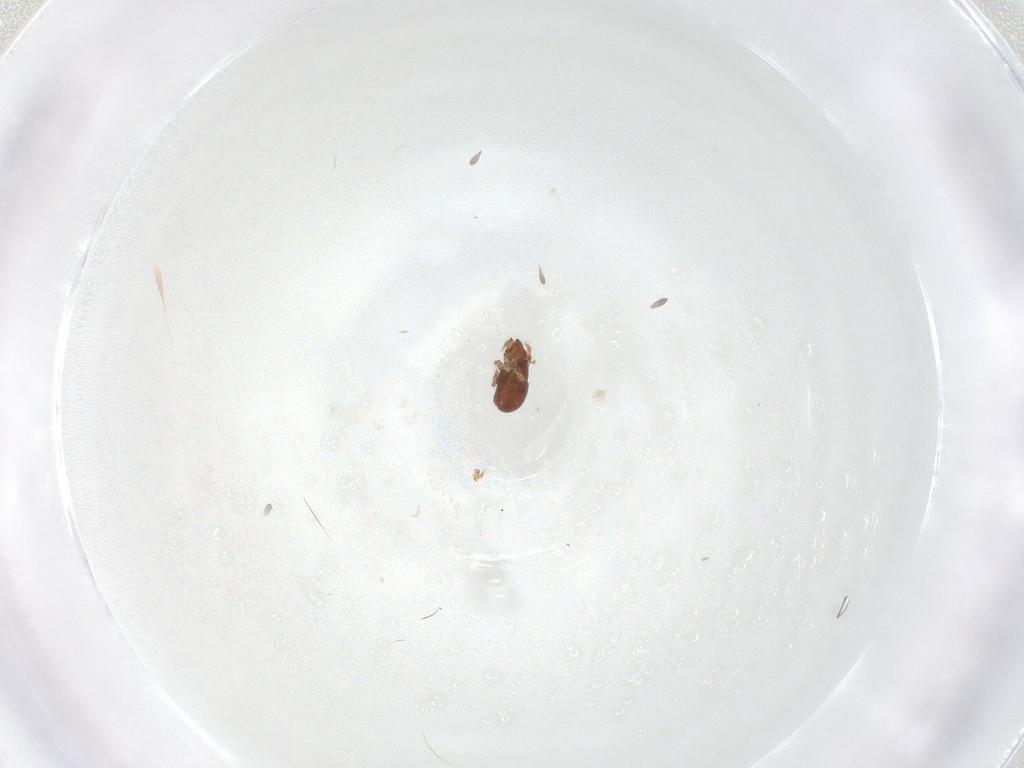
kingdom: Animalia
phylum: Arthropoda
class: Arachnida
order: Mesostigmata
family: Ascidae
